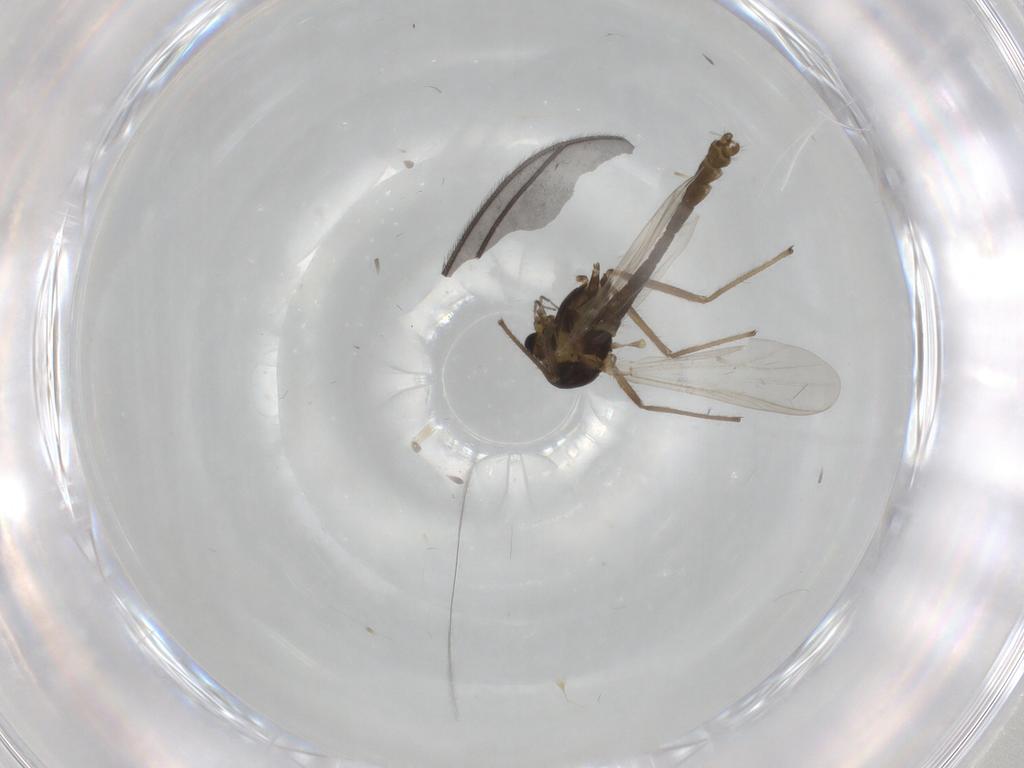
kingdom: Animalia
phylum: Arthropoda
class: Insecta
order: Diptera
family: Chironomidae
